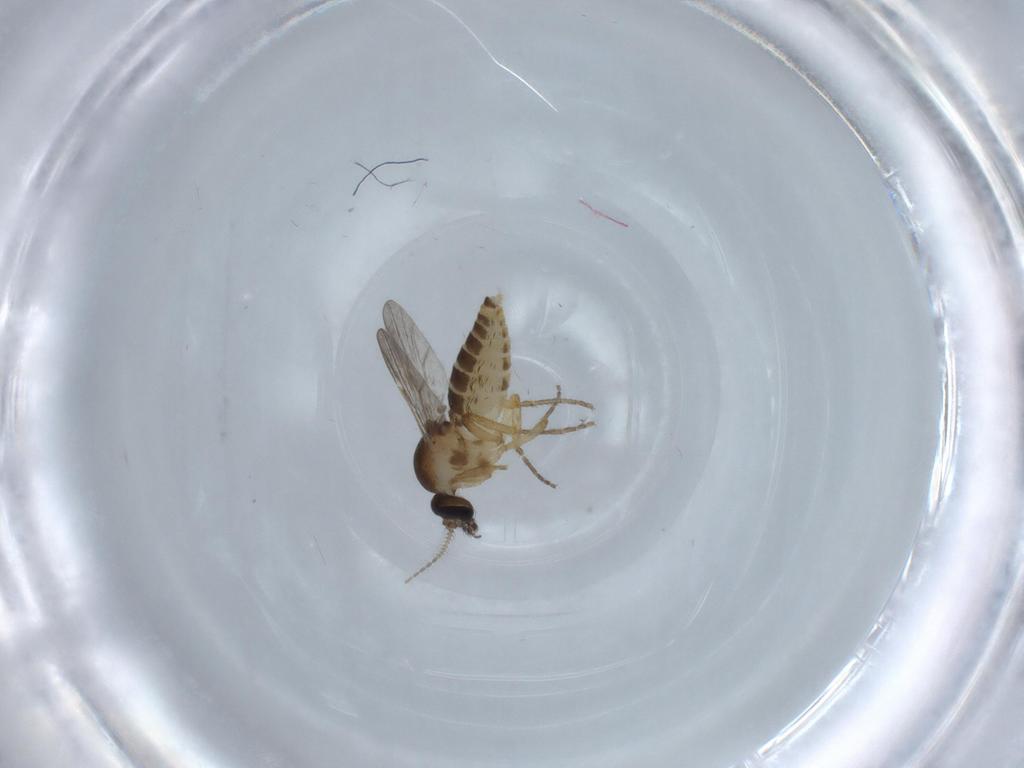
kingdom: Animalia
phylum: Arthropoda
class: Insecta
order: Diptera
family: Ceratopogonidae
